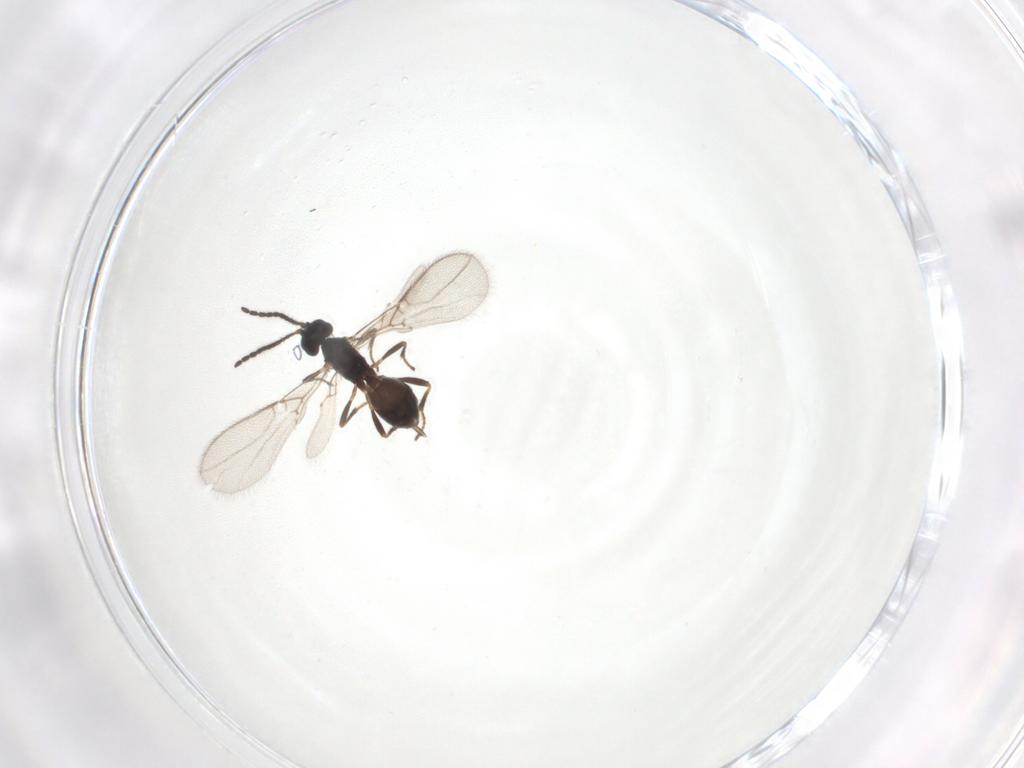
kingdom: Animalia
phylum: Arthropoda
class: Insecta
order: Hymenoptera
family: Braconidae
